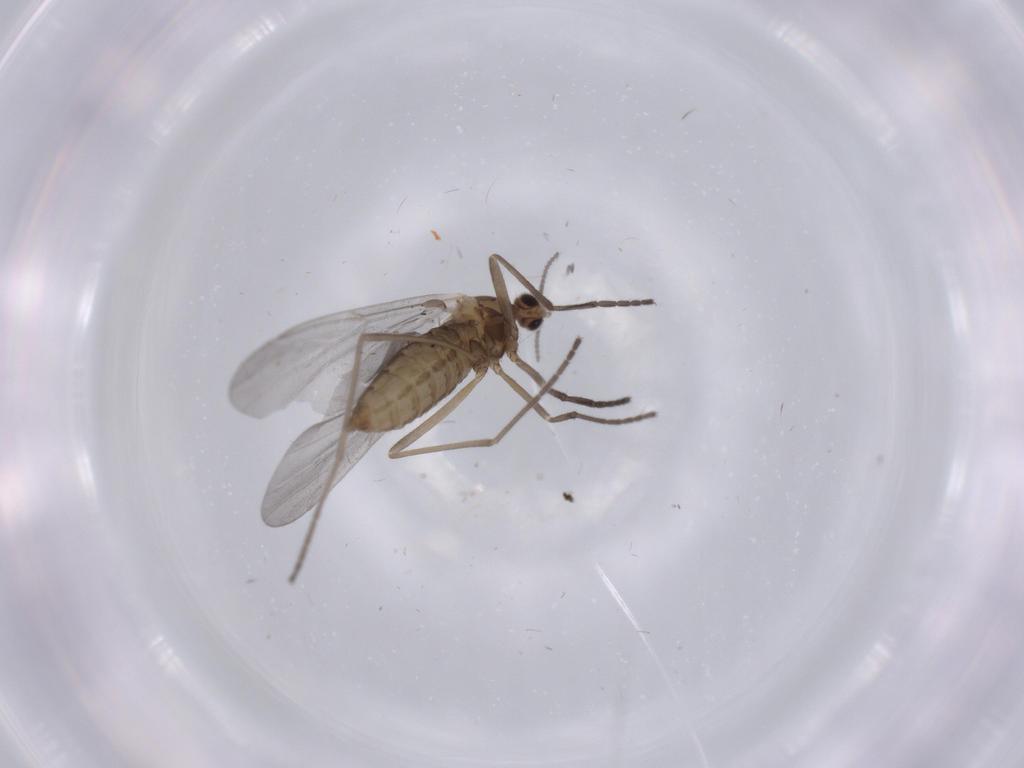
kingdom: Animalia
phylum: Arthropoda
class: Insecta
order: Diptera
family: Cecidomyiidae
